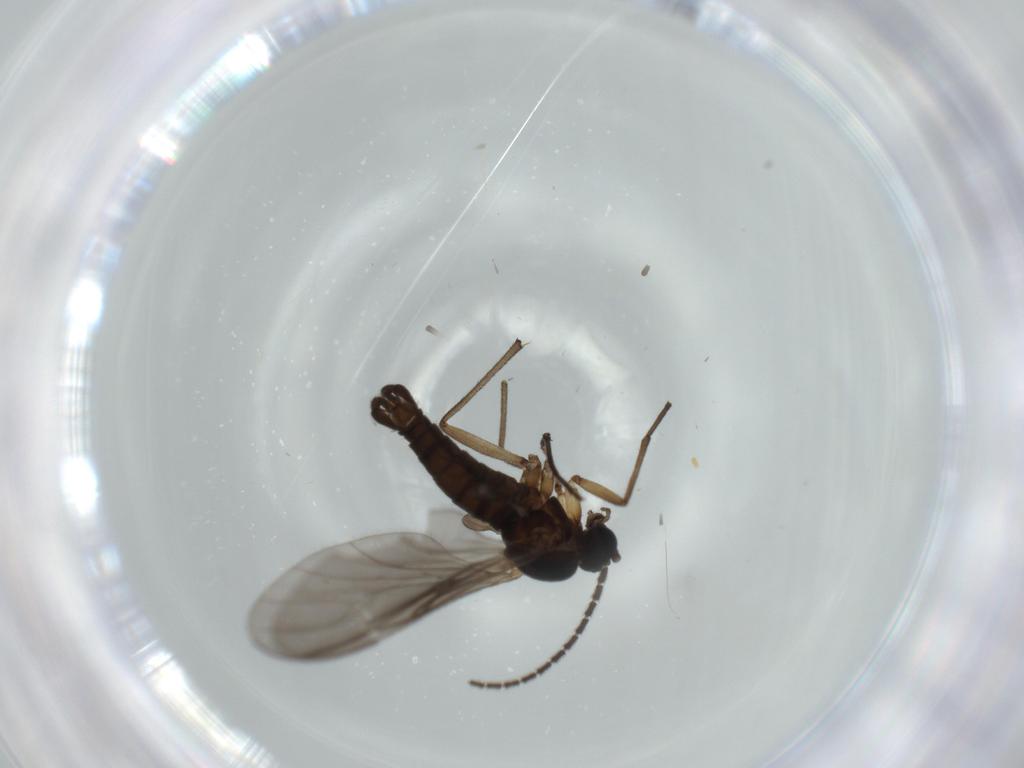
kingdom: Animalia
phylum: Arthropoda
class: Insecta
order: Diptera
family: Sciaridae
